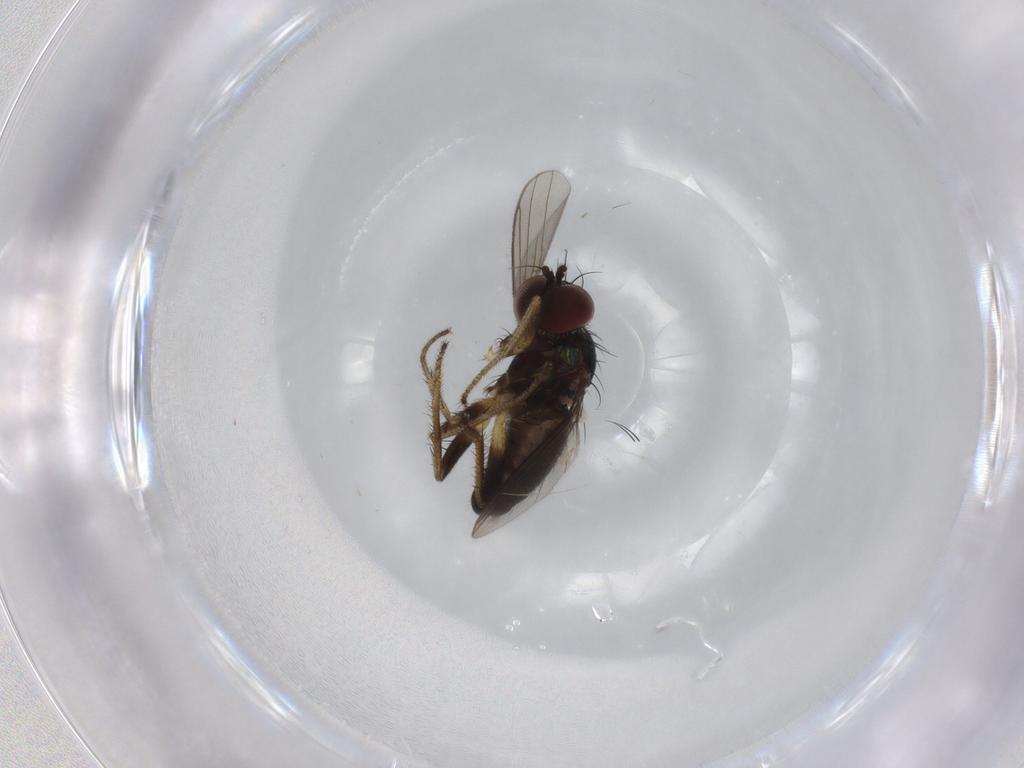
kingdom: Animalia
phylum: Arthropoda
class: Insecta
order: Diptera
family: Dolichopodidae
